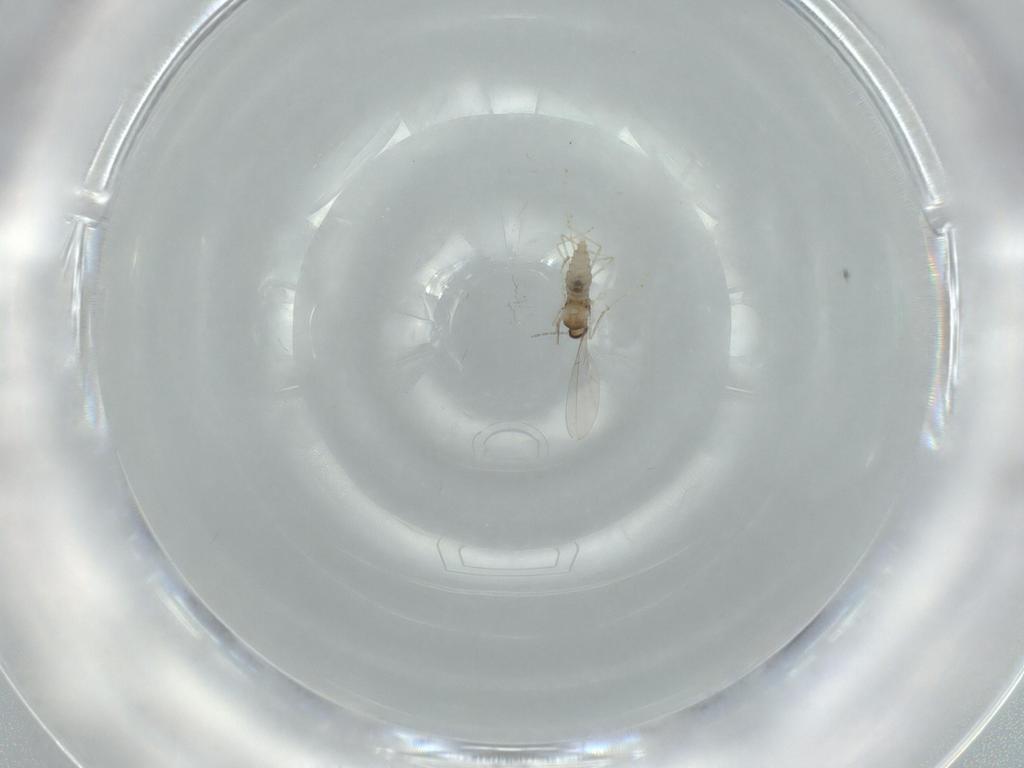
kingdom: Animalia
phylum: Arthropoda
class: Insecta
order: Diptera
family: Cecidomyiidae
